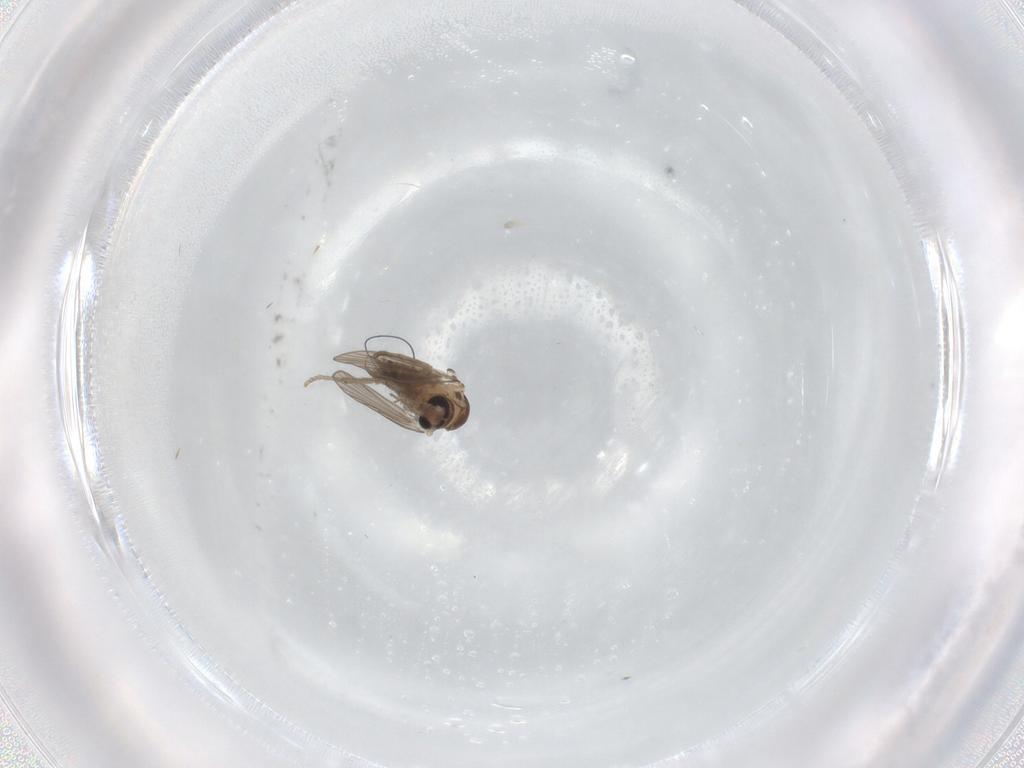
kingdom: Animalia
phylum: Arthropoda
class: Insecta
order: Diptera
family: Psychodidae
